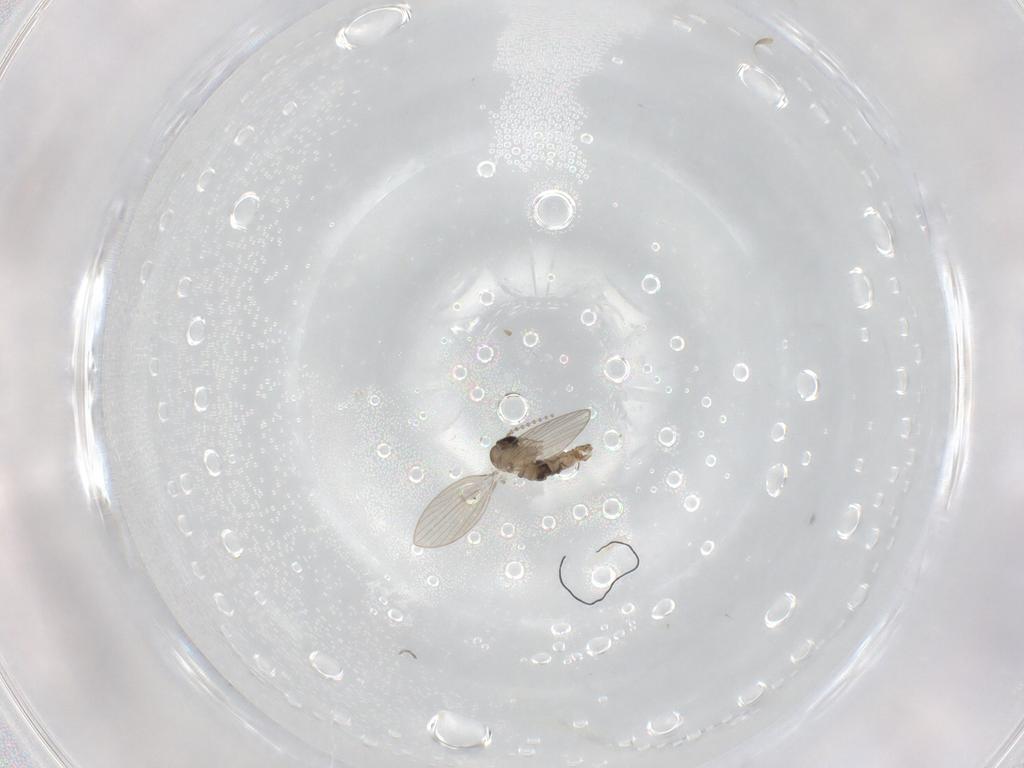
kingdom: Animalia
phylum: Arthropoda
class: Insecta
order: Diptera
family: Psychodidae
